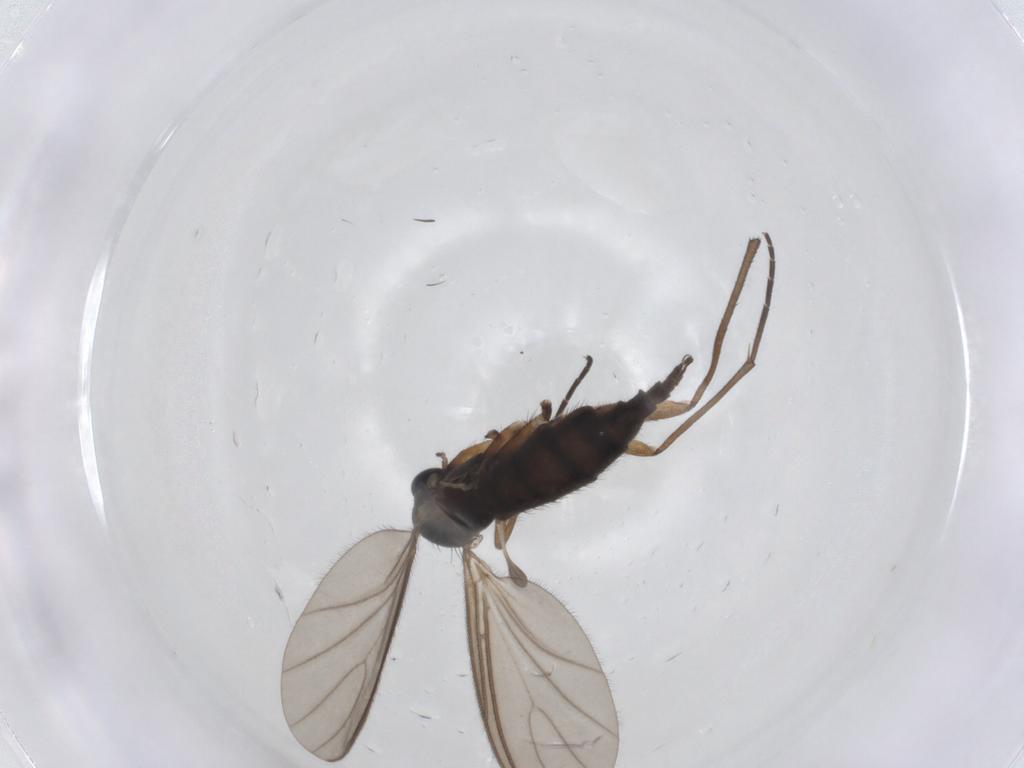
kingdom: Animalia
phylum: Arthropoda
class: Insecta
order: Diptera
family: Sciaridae
